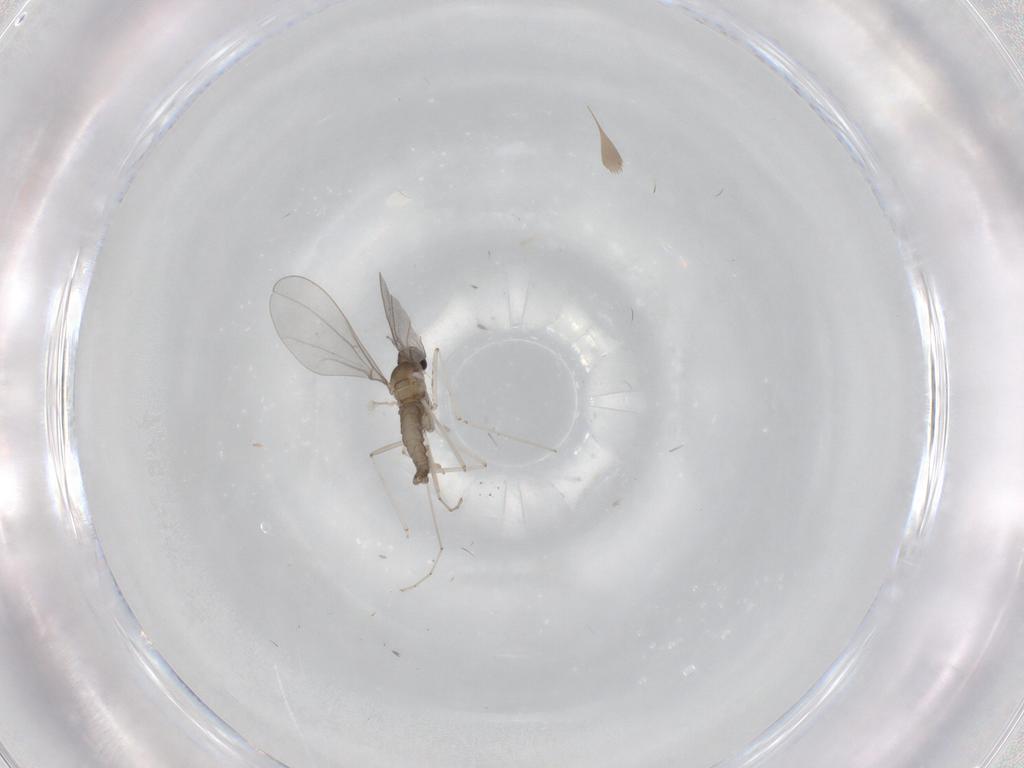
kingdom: Animalia
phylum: Arthropoda
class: Insecta
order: Diptera
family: Cecidomyiidae
